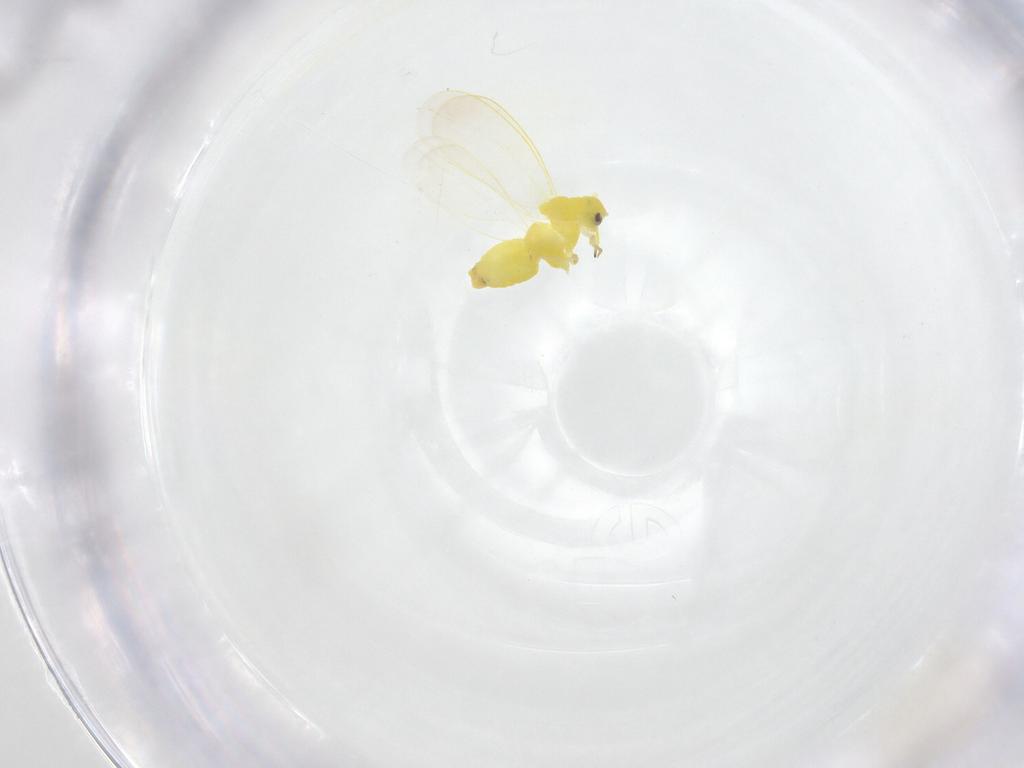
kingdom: Animalia
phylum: Arthropoda
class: Insecta
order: Hemiptera
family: Aleyrodidae
